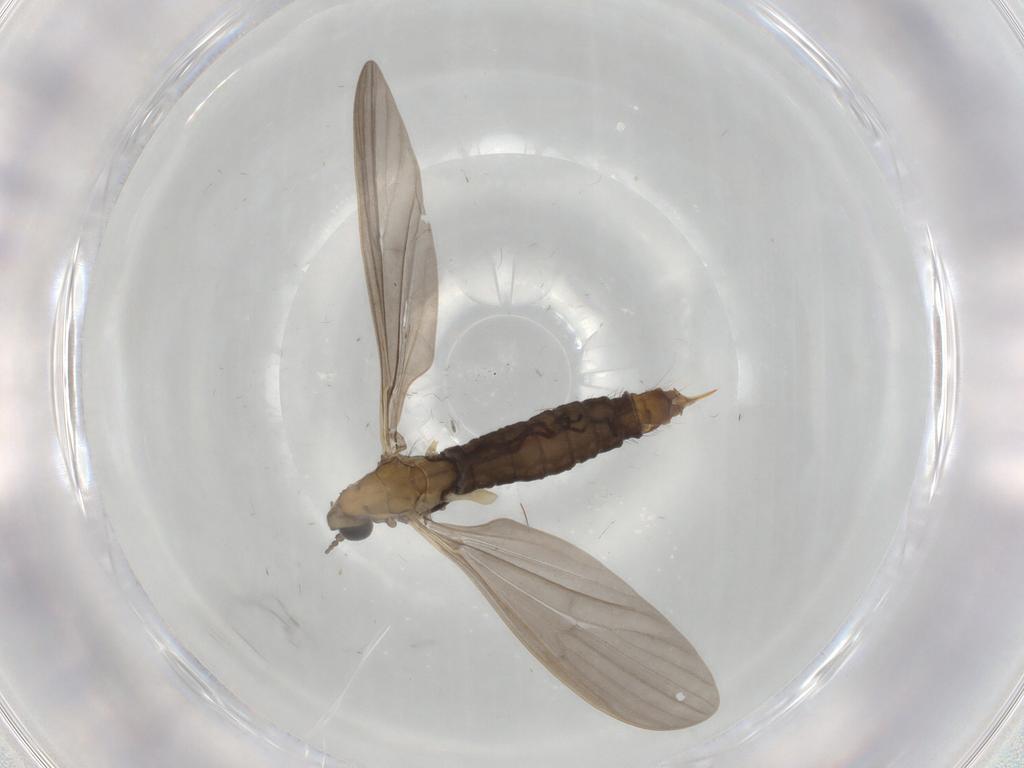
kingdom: Animalia
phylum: Arthropoda
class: Insecta
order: Diptera
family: Limoniidae
